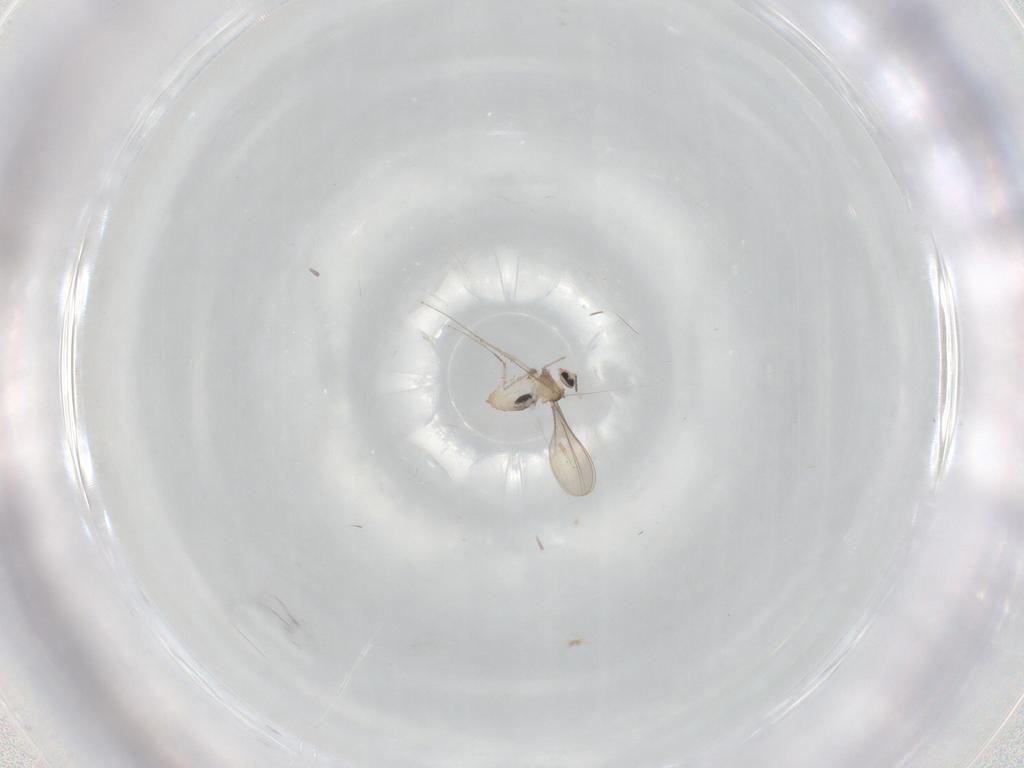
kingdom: Animalia
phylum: Arthropoda
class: Insecta
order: Diptera
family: Cecidomyiidae
